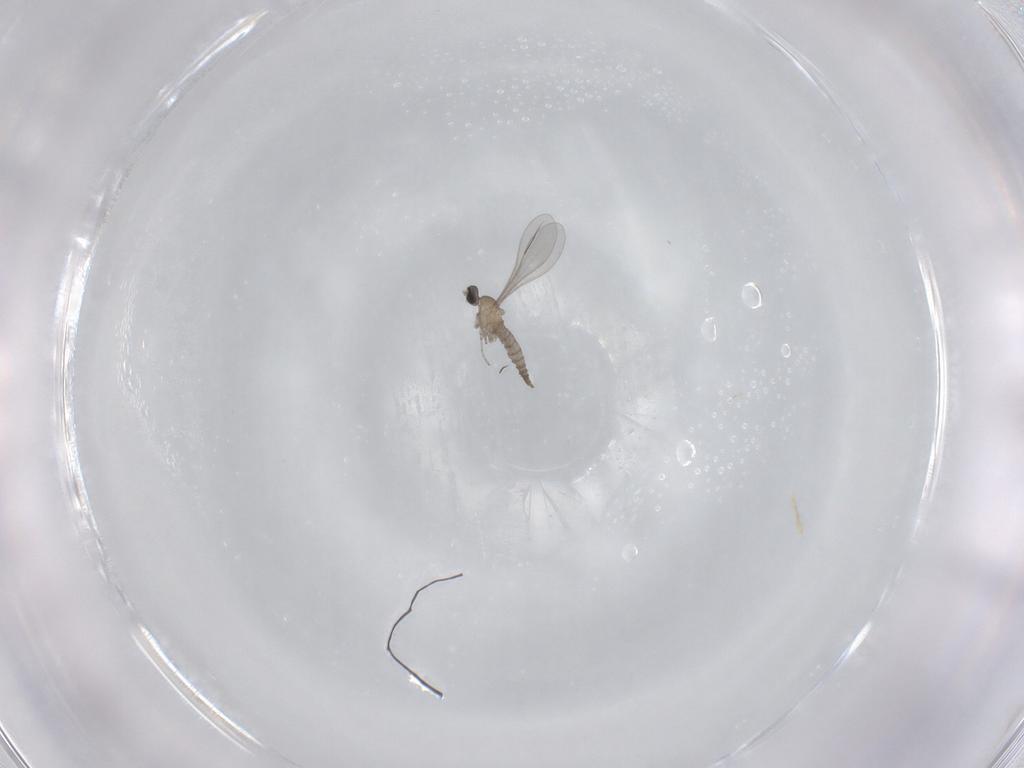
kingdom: Animalia
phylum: Arthropoda
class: Insecta
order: Diptera
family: Cecidomyiidae
